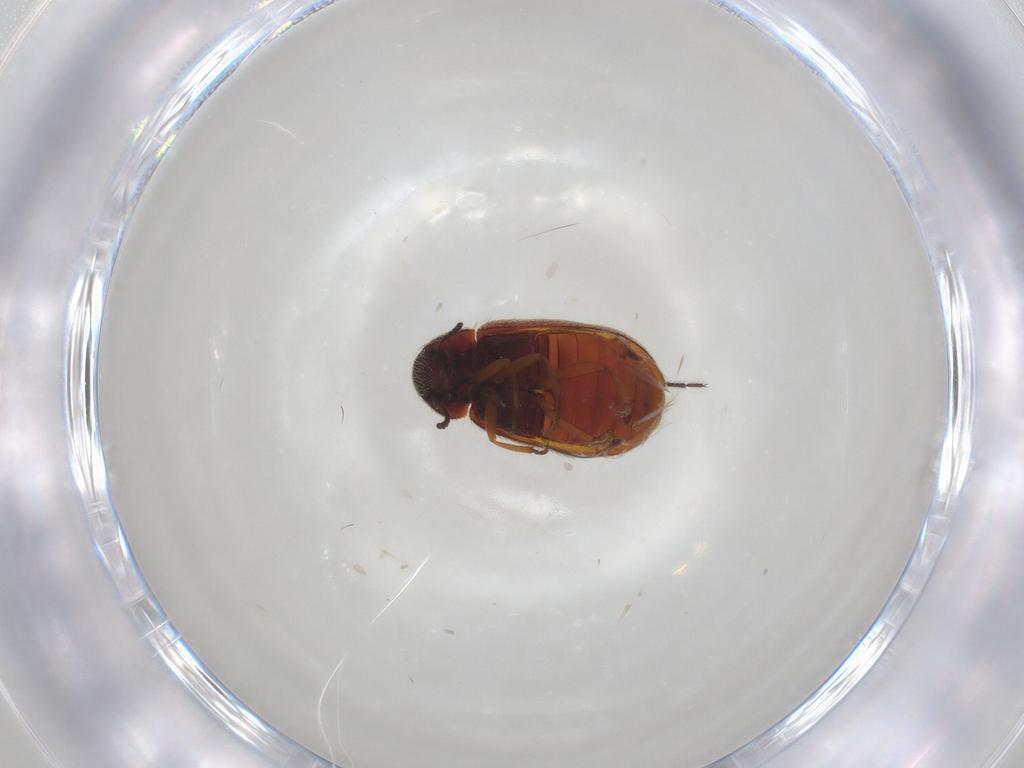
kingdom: Animalia
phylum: Arthropoda
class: Insecta
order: Coleoptera
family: Rhadalidae
